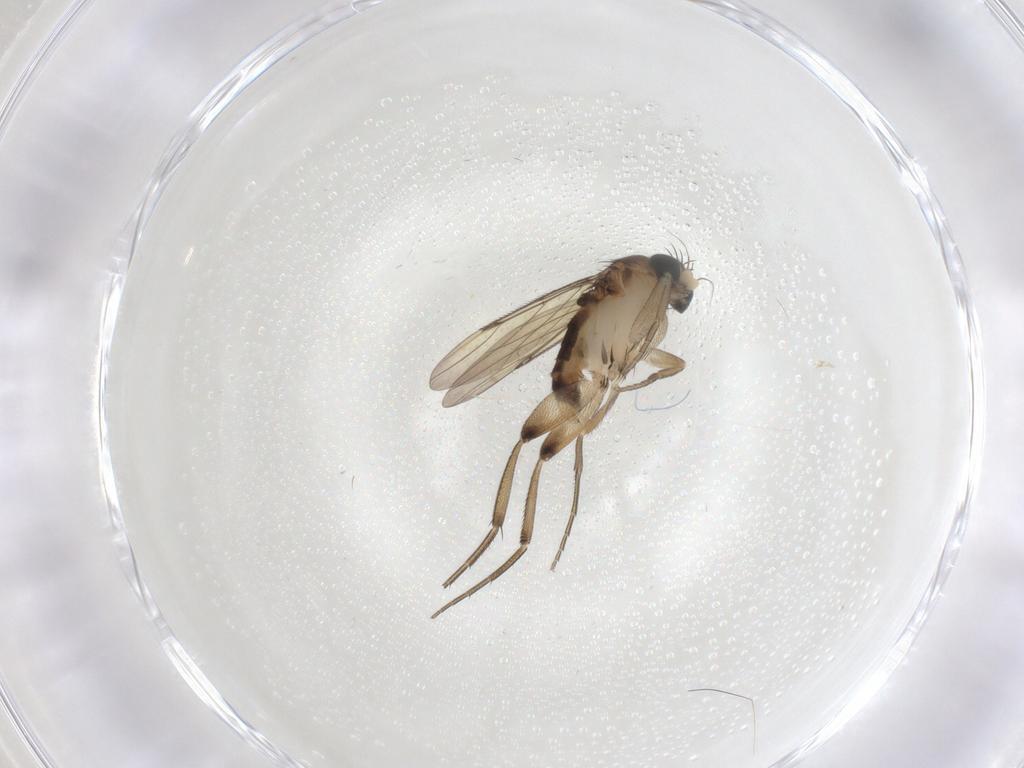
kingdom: Animalia
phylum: Arthropoda
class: Insecta
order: Diptera
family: Phoridae
